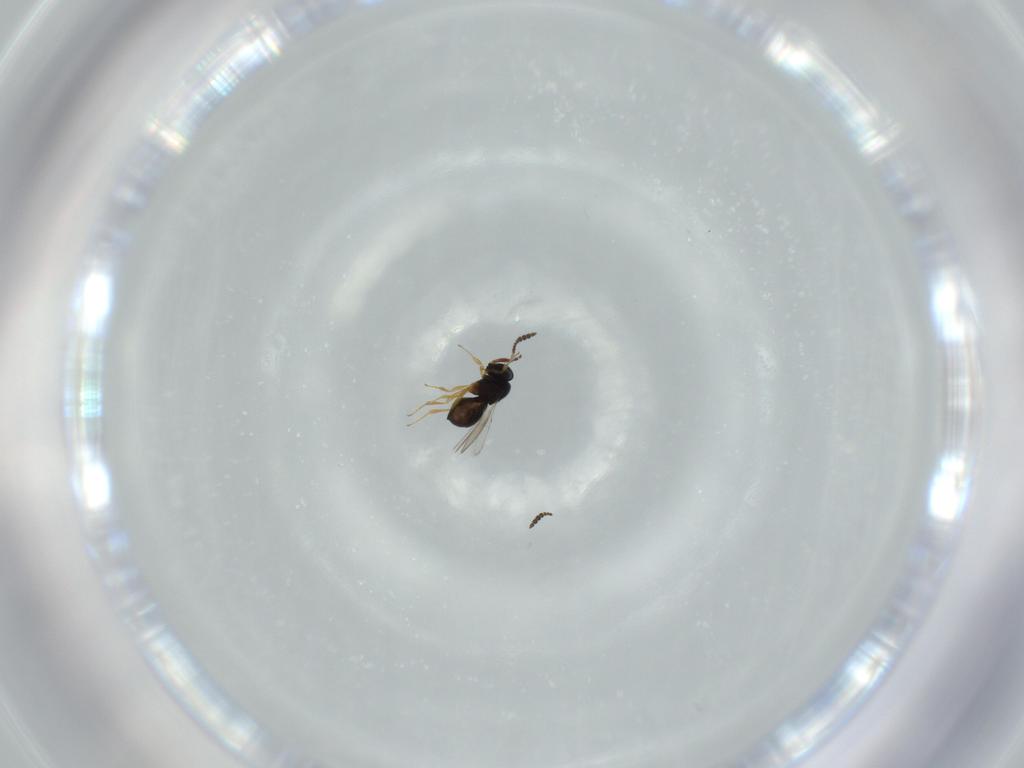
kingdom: Animalia
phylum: Arthropoda
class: Insecta
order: Hymenoptera
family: Scelionidae
